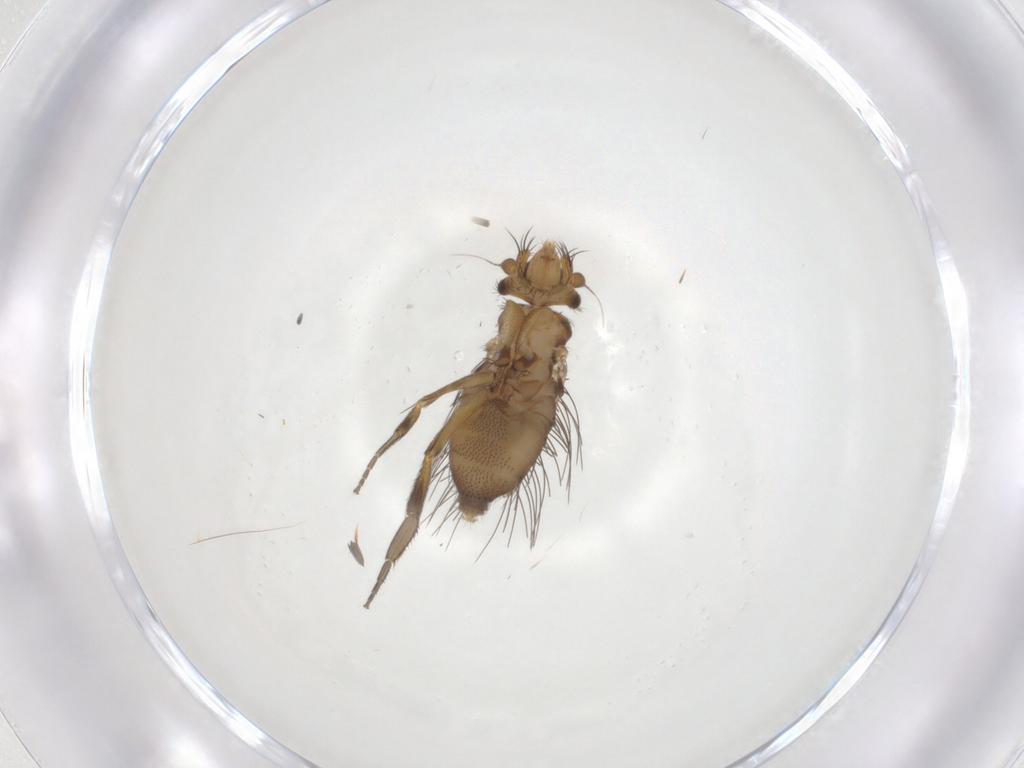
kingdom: Animalia
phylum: Arthropoda
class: Insecta
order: Diptera
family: Phoridae
